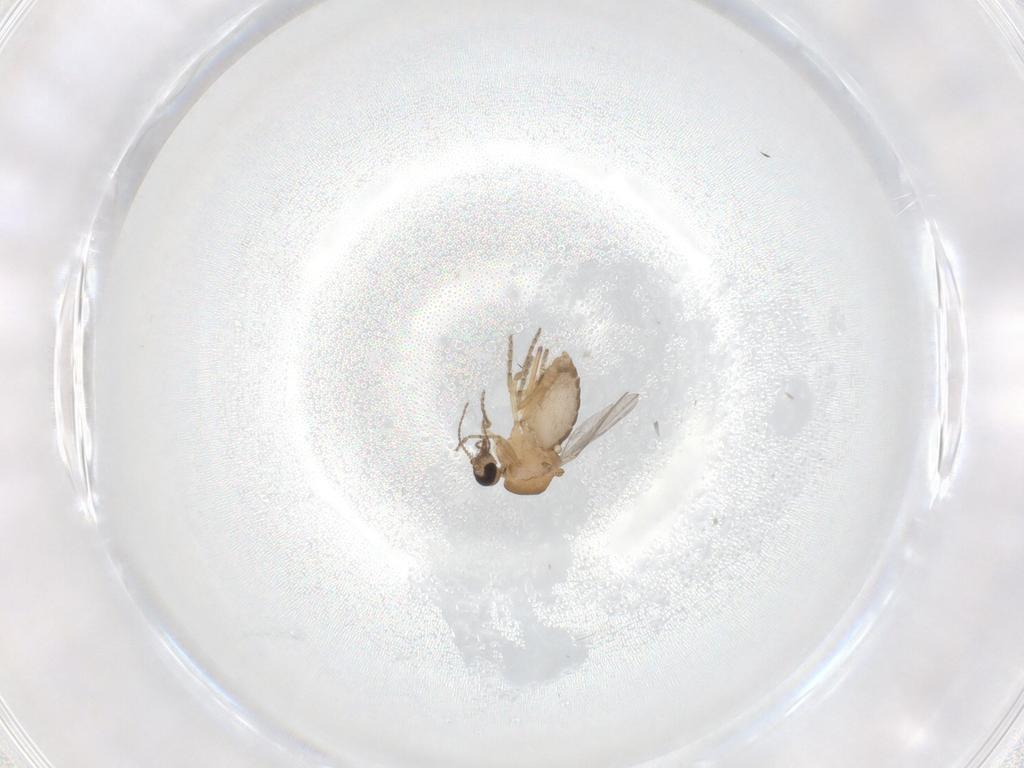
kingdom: Animalia
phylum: Arthropoda
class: Insecta
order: Diptera
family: Ceratopogonidae
